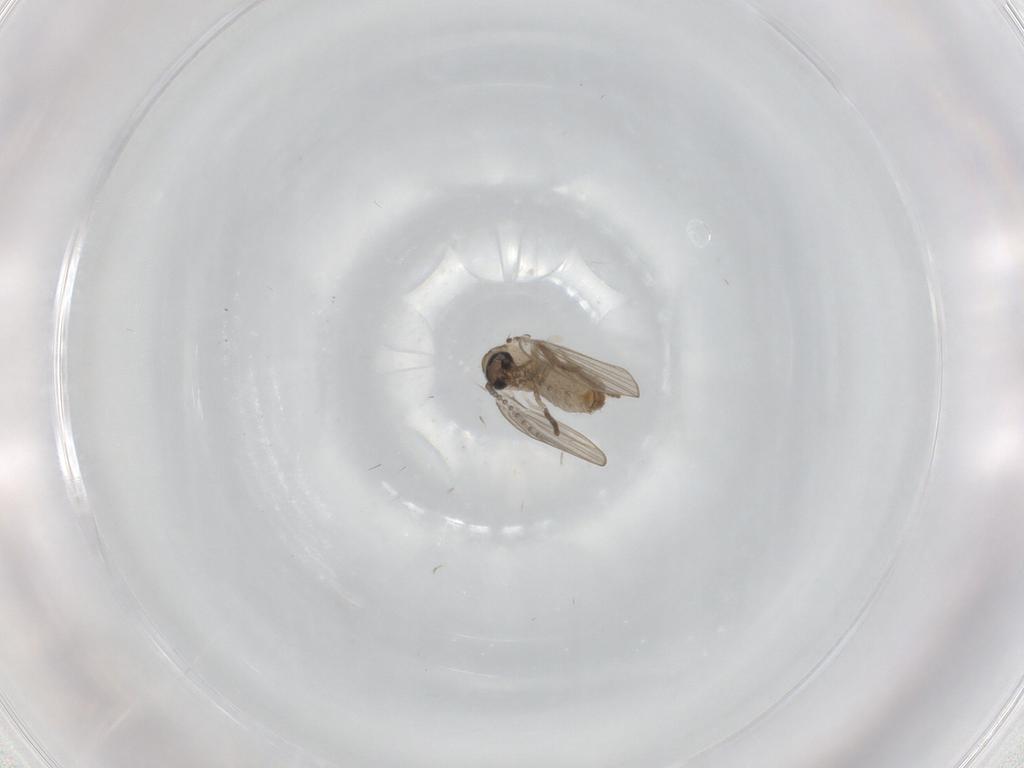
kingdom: Animalia
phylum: Arthropoda
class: Insecta
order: Diptera
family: Psychodidae
